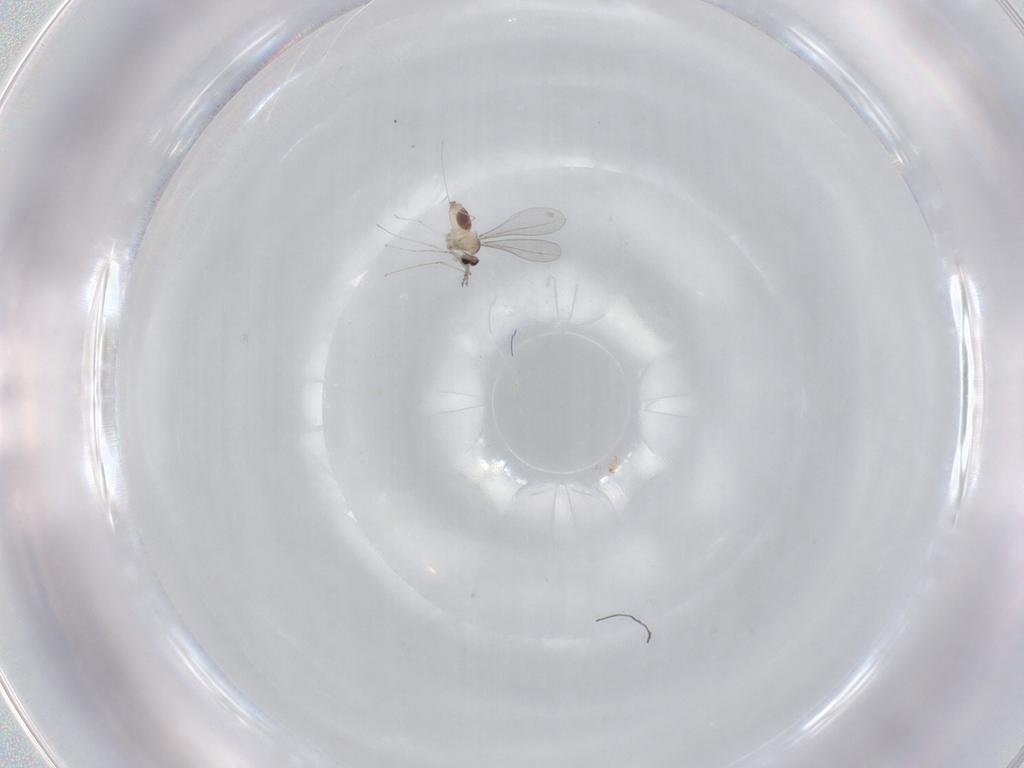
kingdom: Animalia
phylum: Arthropoda
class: Insecta
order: Diptera
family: Cecidomyiidae
